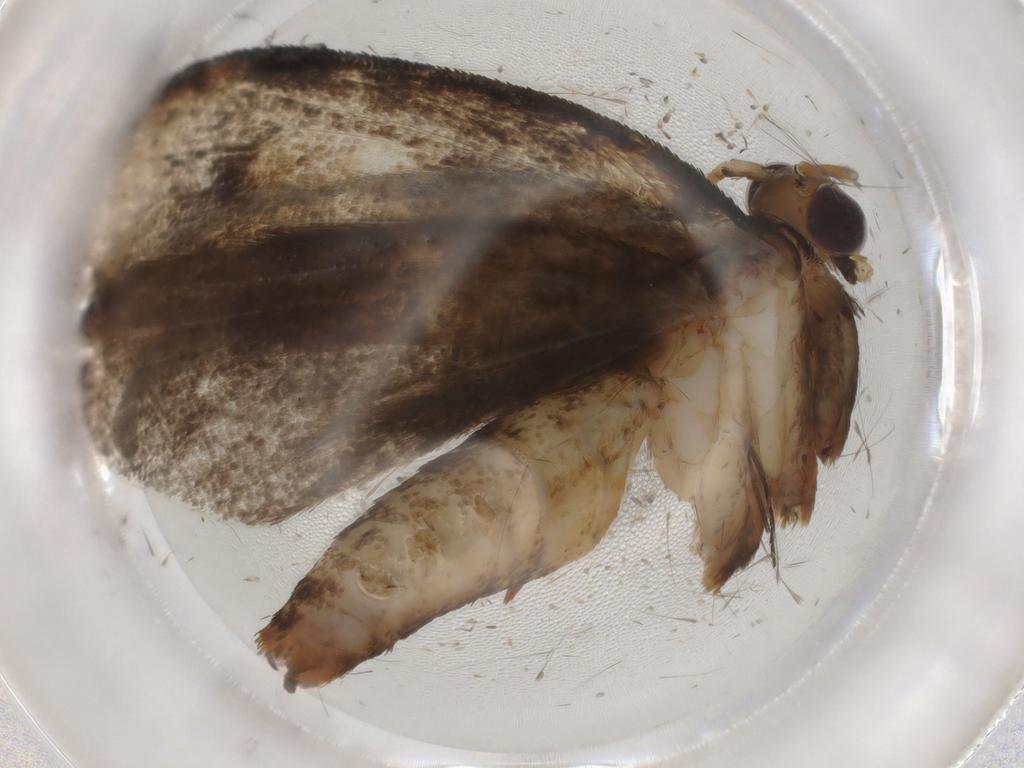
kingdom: Animalia
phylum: Arthropoda
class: Insecta
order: Lepidoptera
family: Tineidae
